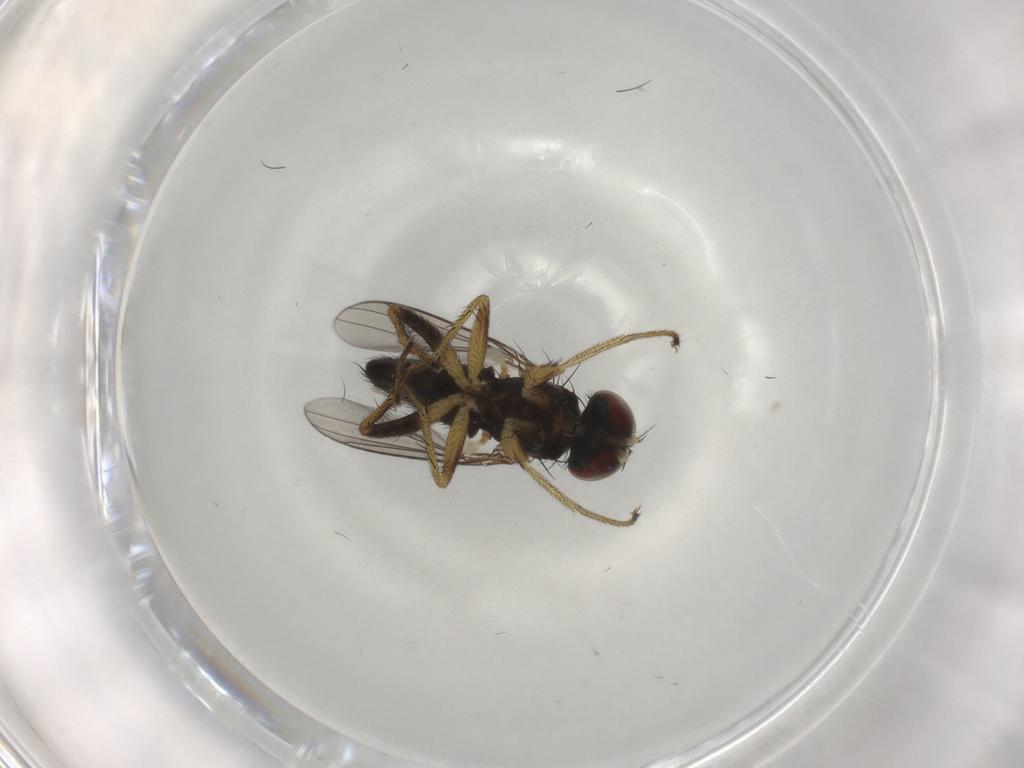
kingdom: Animalia
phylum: Arthropoda
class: Insecta
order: Diptera
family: Dolichopodidae
